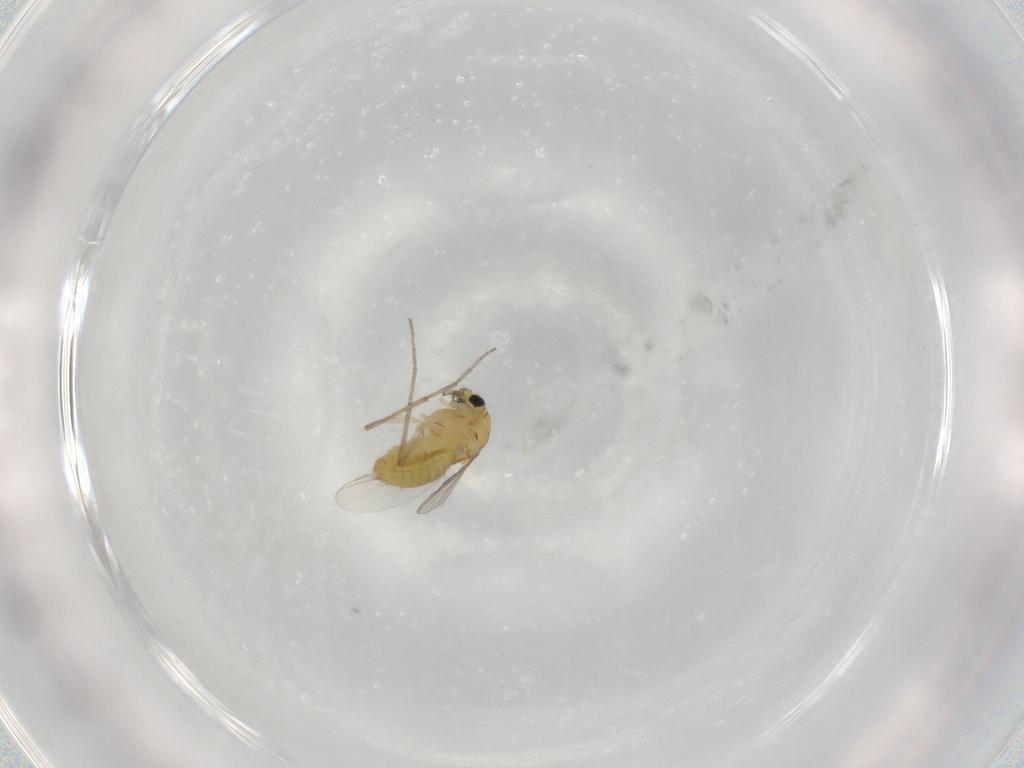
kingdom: Animalia
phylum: Arthropoda
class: Insecta
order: Diptera
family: Chironomidae
